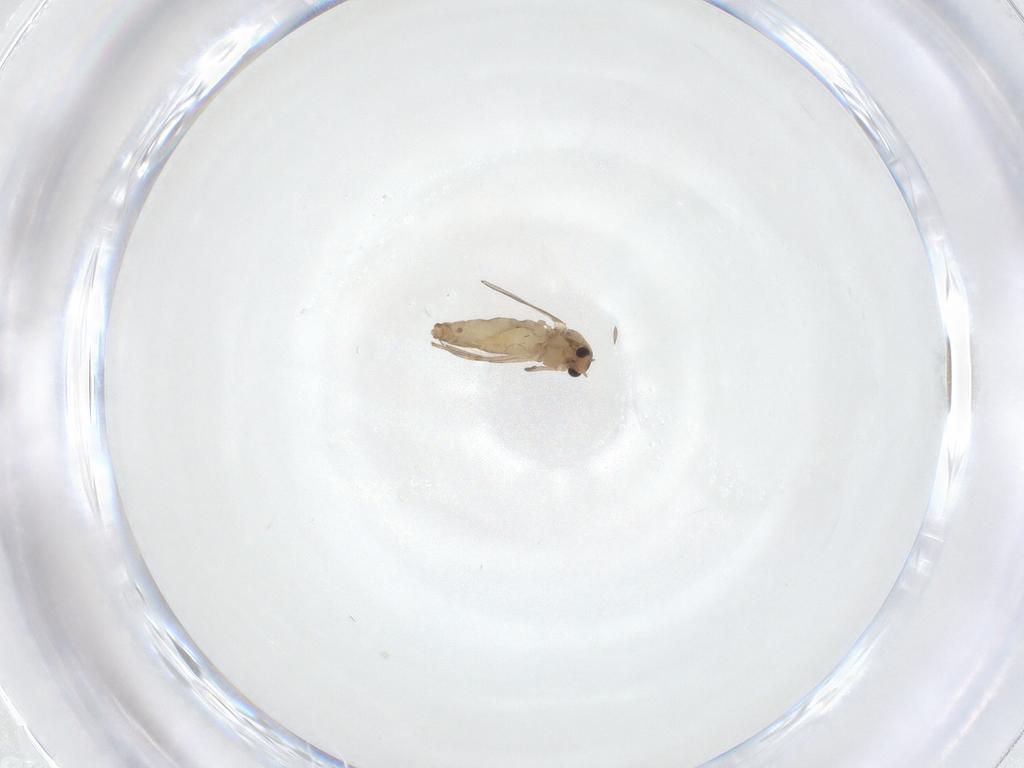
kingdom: Animalia
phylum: Arthropoda
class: Insecta
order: Diptera
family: Cecidomyiidae
